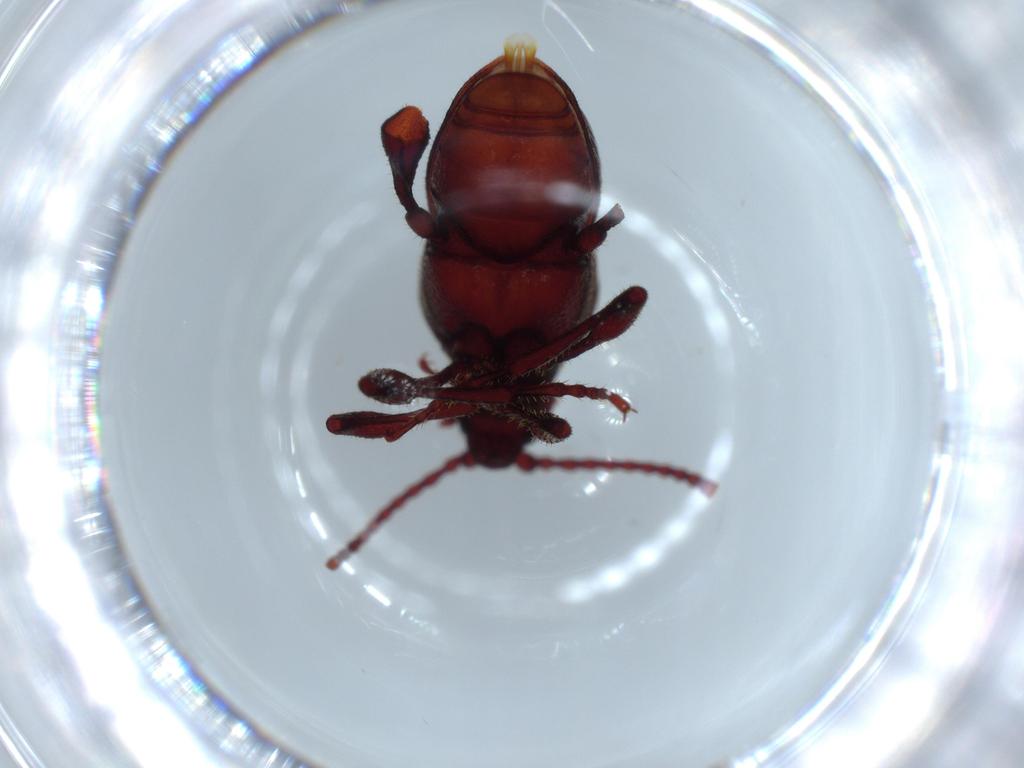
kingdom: Animalia
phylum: Arthropoda
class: Insecta
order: Coleoptera
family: Ptinidae
